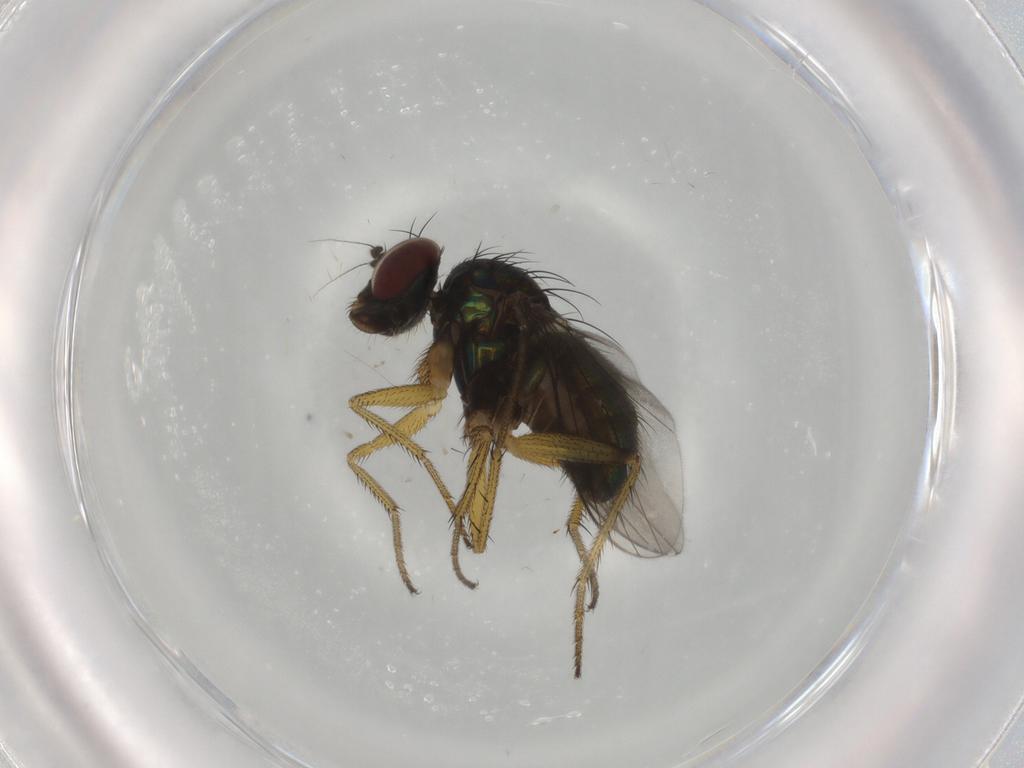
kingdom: Animalia
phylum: Arthropoda
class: Insecta
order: Diptera
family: Dolichopodidae
